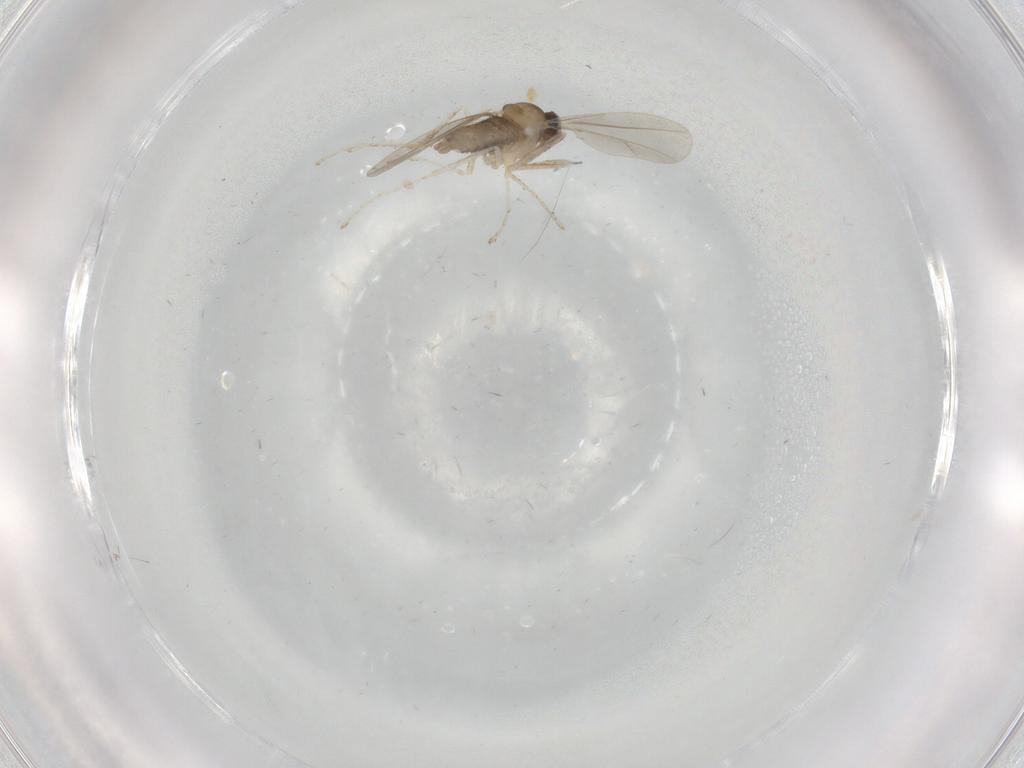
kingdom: Animalia
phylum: Arthropoda
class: Insecta
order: Diptera
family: Cecidomyiidae
